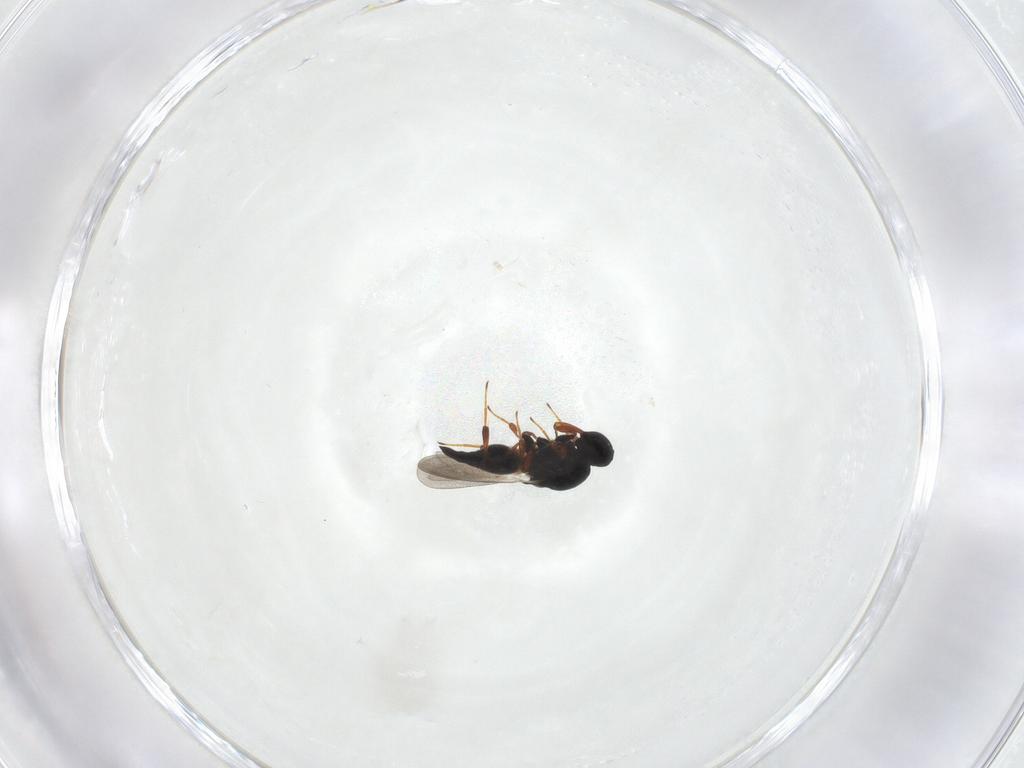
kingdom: Animalia
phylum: Arthropoda
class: Insecta
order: Hymenoptera
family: Platygastridae
